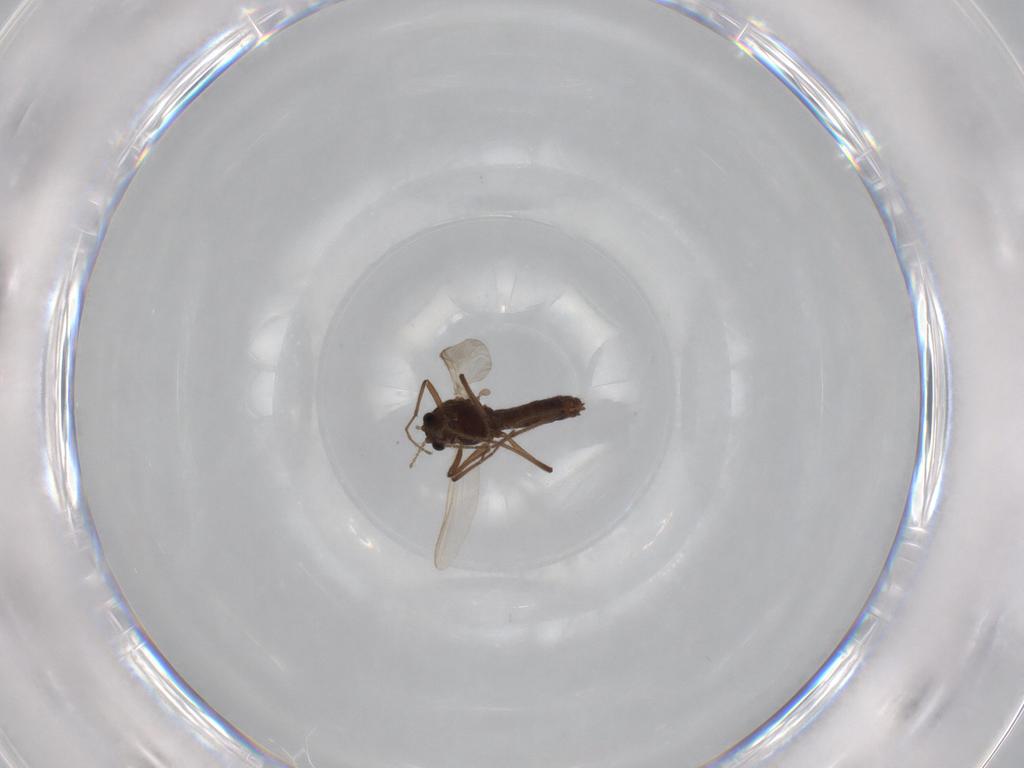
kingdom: Animalia
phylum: Arthropoda
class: Insecta
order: Diptera
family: Chironomidae
